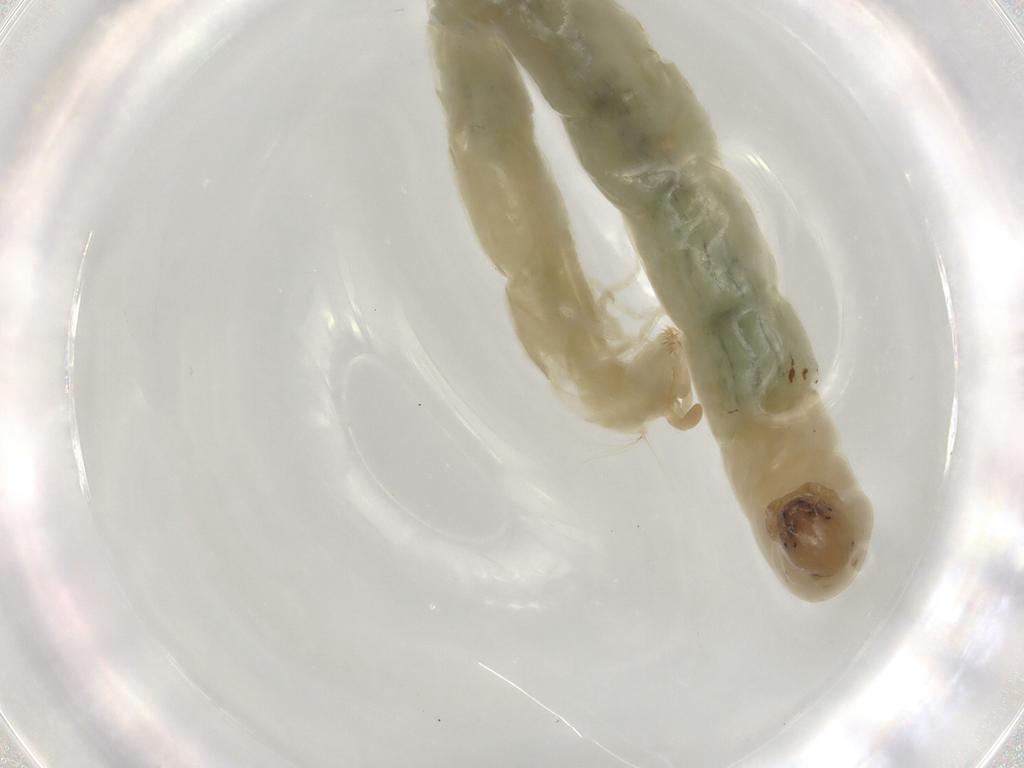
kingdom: Animalia
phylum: Arthropoda
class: Insecta
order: Diptera
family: Chironomidae
